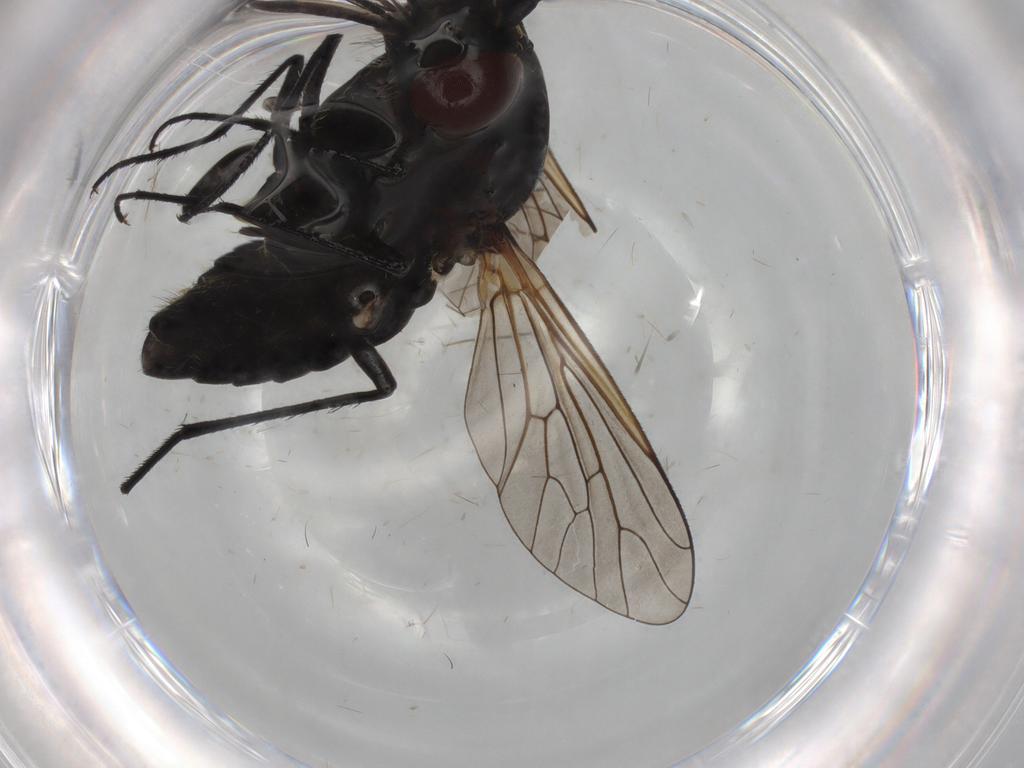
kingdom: Animalia
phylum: Arthropoda
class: Insecta
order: Diptera
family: Bombyliidae
